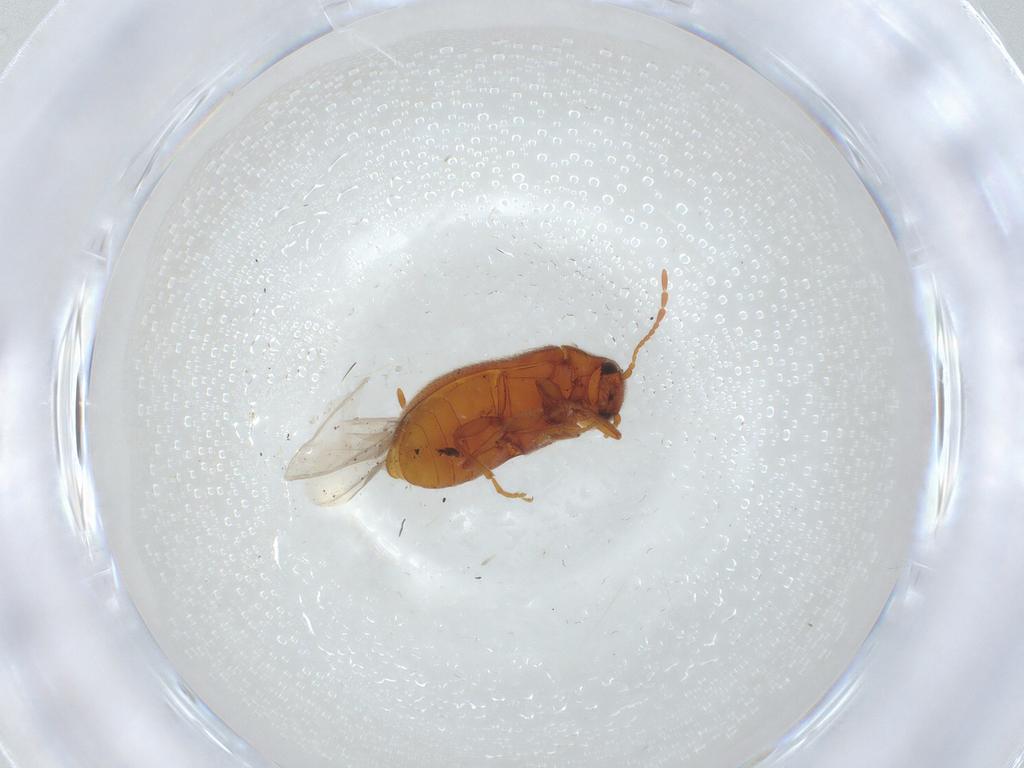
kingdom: Animalia
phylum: Arthropoda
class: Insecta
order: Coleoptera
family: Ptinidae
